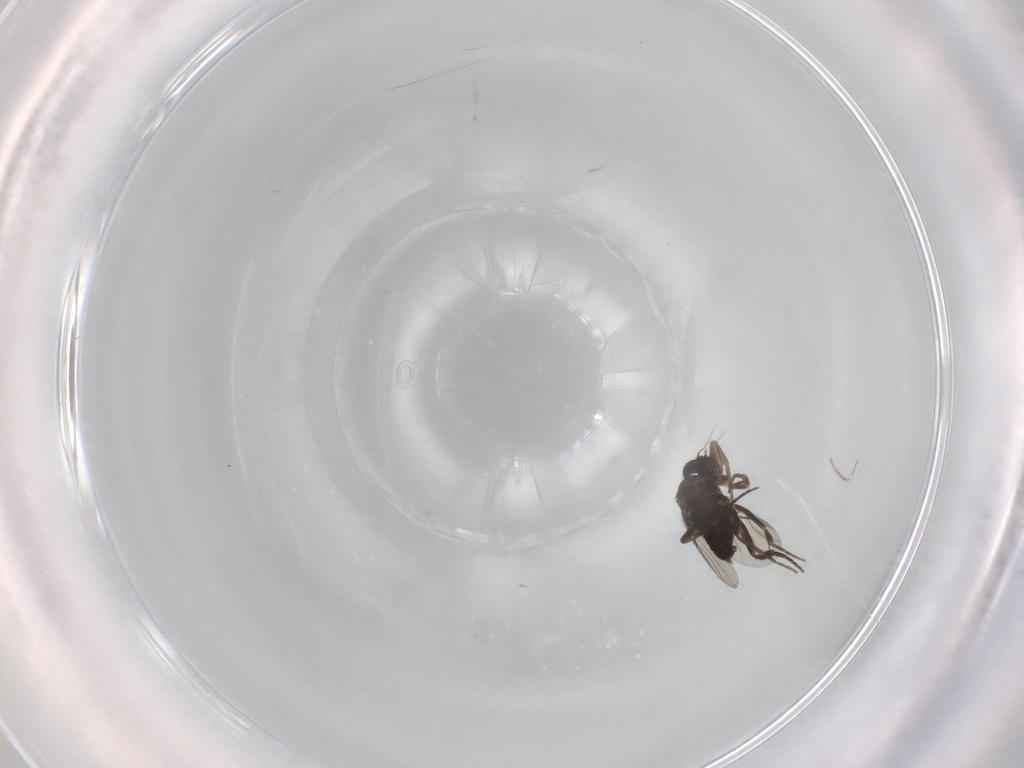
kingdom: Animalia
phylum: Arthropoda
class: Insecta
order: Diptera
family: Phoridae
